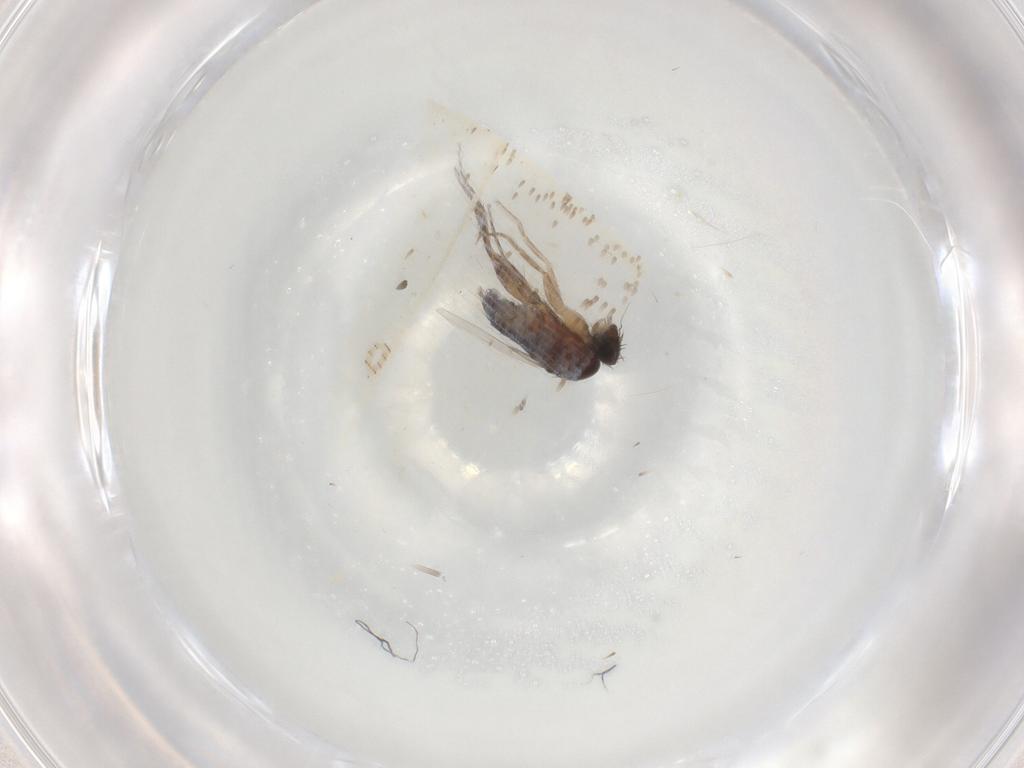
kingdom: Animalia
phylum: Arthropoda
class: Insecta
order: Diptera
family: Phoridae
